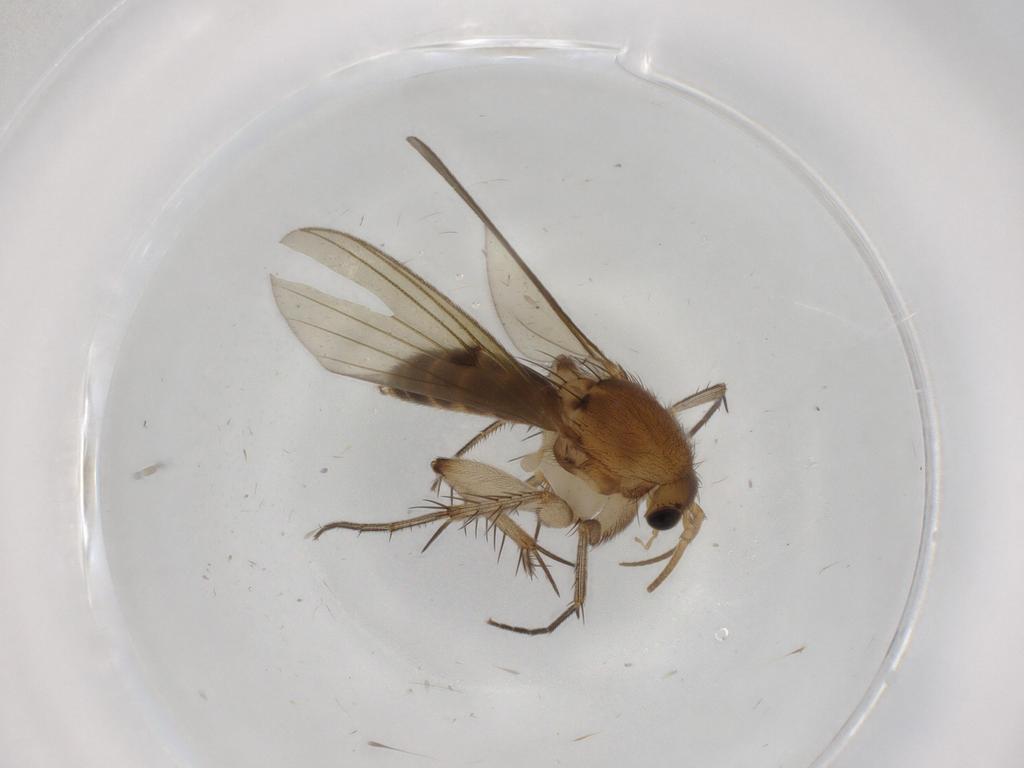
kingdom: Animalia
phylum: Arthropoda
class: Insecta
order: Diptera
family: Ceratopogonidae
